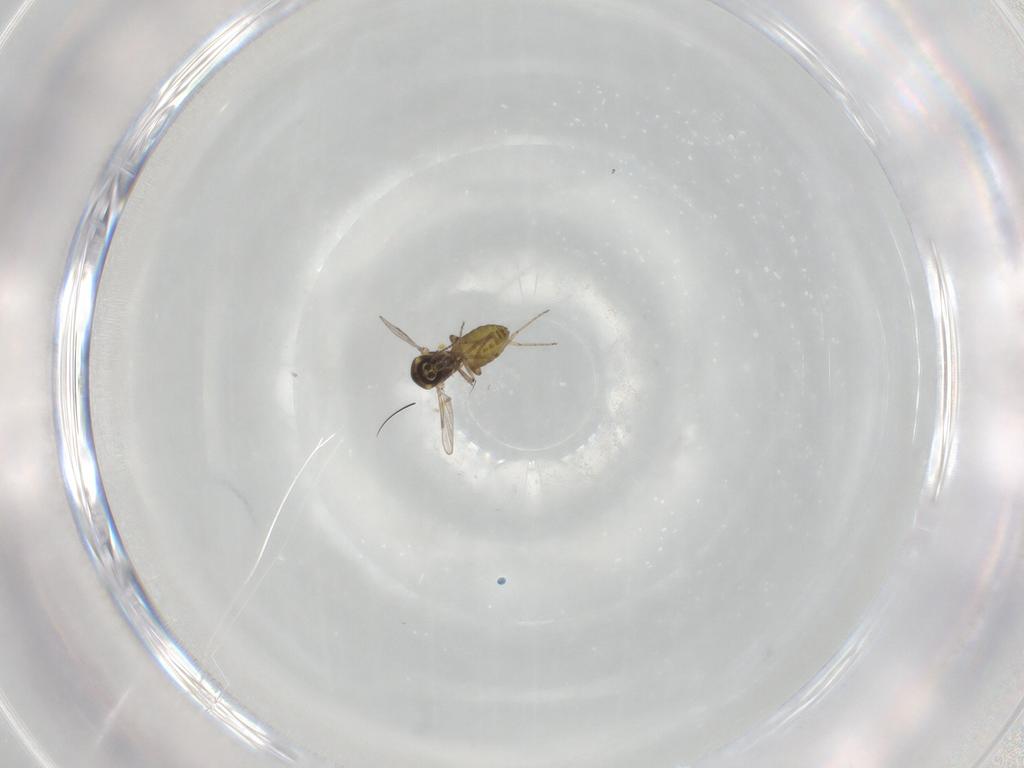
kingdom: Animalia
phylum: Arthropoda
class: Insecta
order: Diptera
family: Ceratopogonidae
